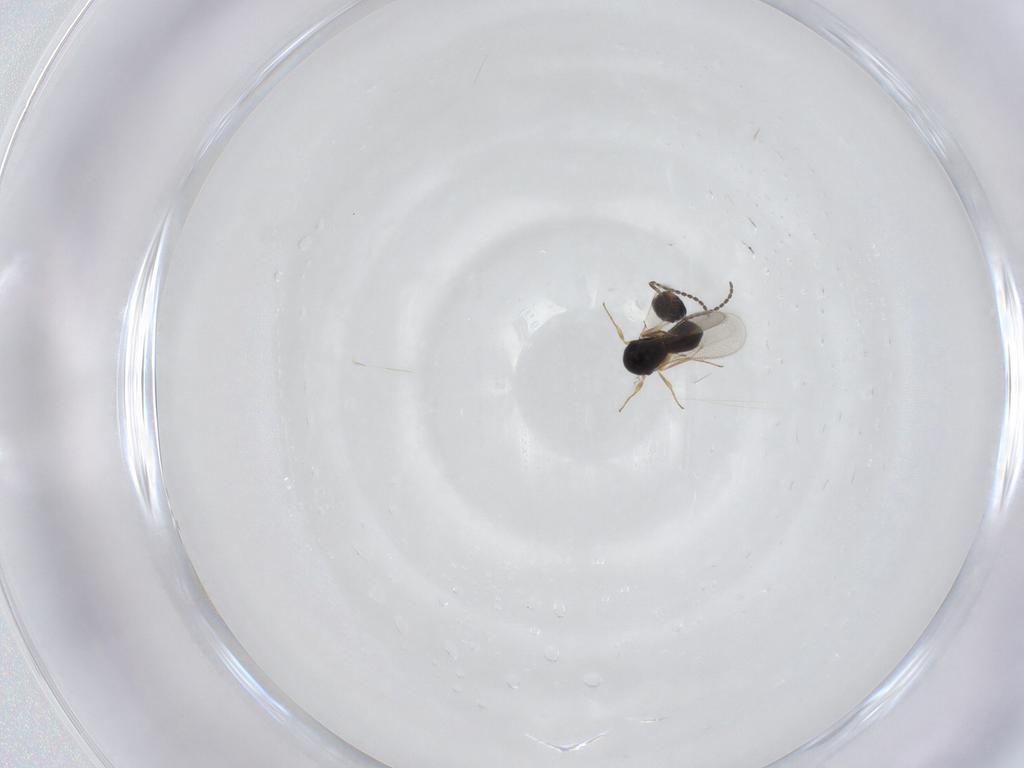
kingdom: Animalia
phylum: Arthropoda
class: Insecta
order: Hymenoptera
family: Scelionidae
